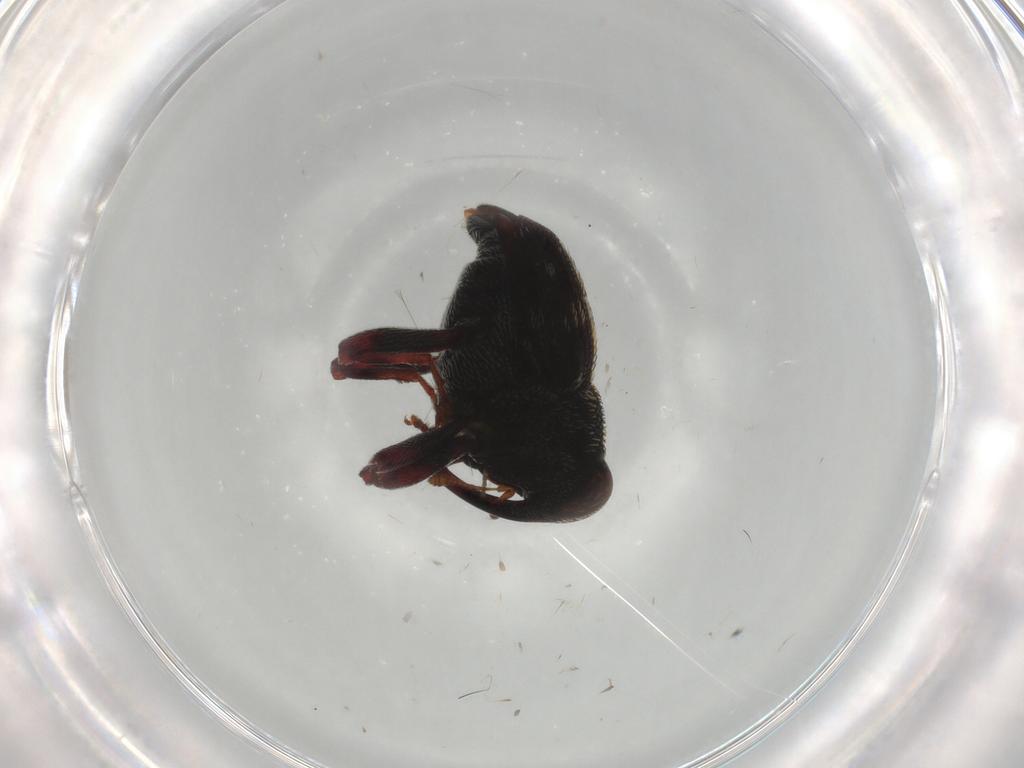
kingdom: Animalia
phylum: Arthropoda
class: Insecta
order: Coleoptera
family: Curculionidae
